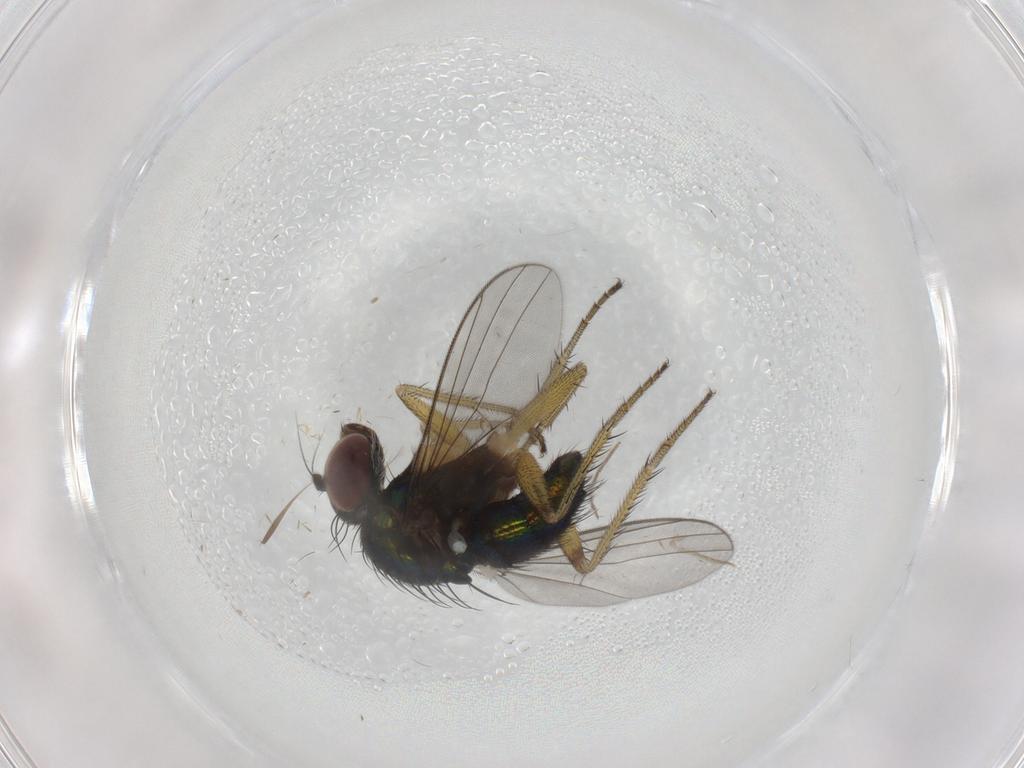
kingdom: Animalia
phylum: Arthropoda
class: Insecta
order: Diptera
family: Dolichopodidae
